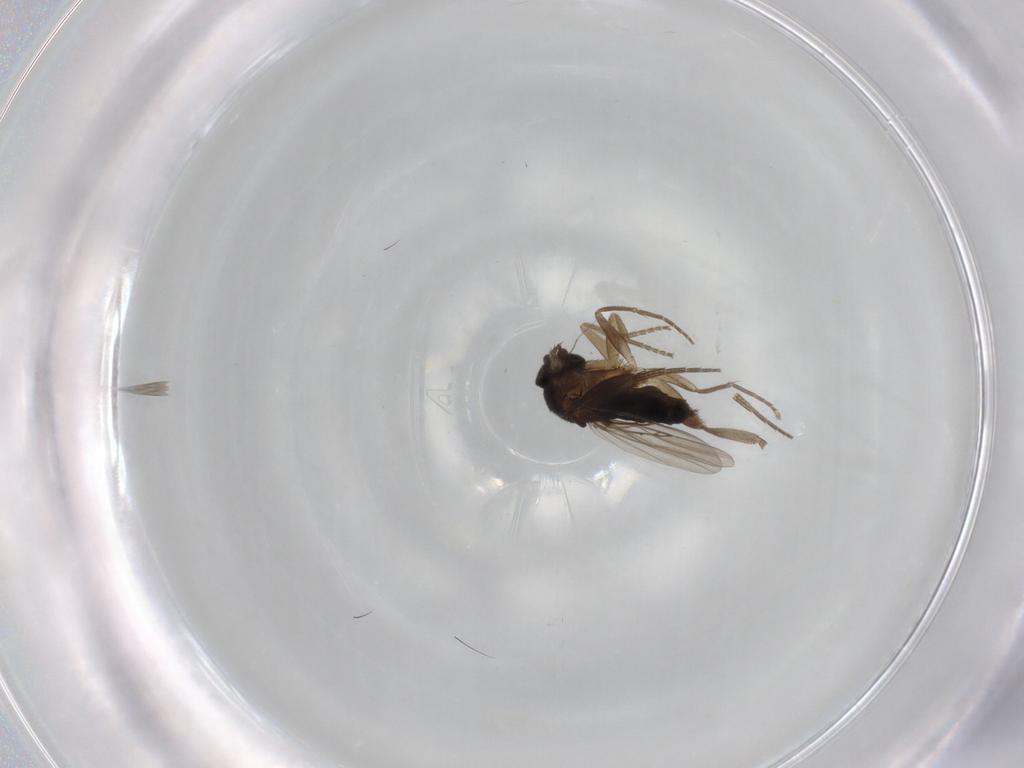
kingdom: Animalia
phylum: Arthropoda
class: Insecta
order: Diptera
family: Phoridae
